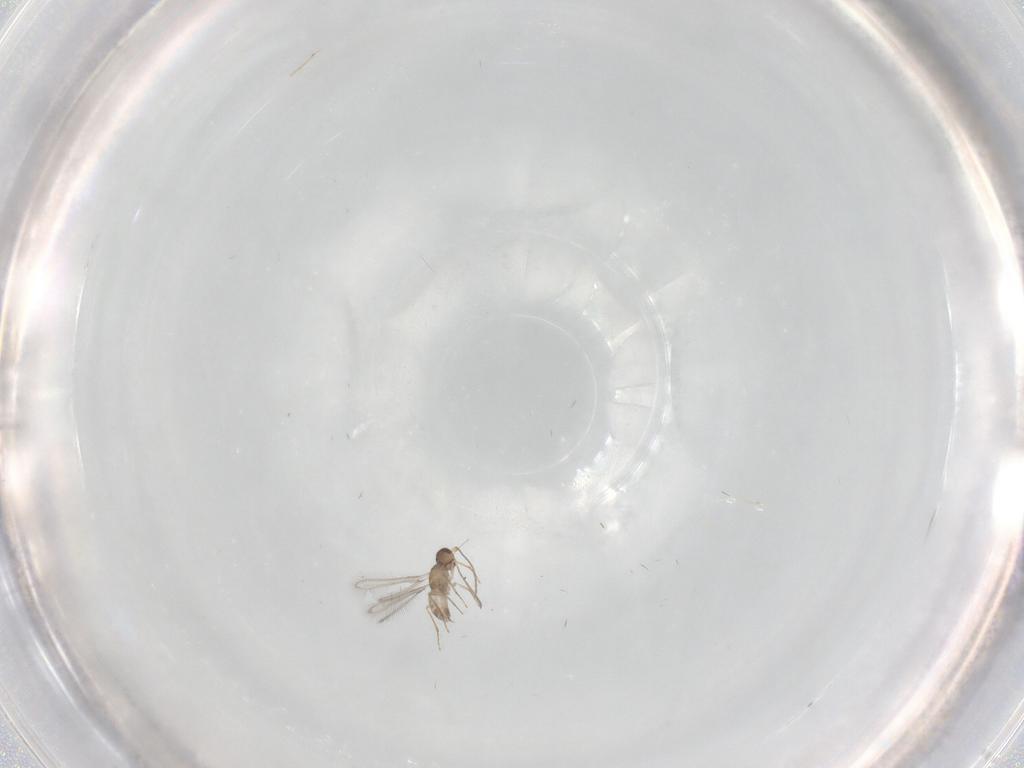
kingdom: Animalia
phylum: Arthropoda
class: Insecta
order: Hymenoptera
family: Mymaridae
